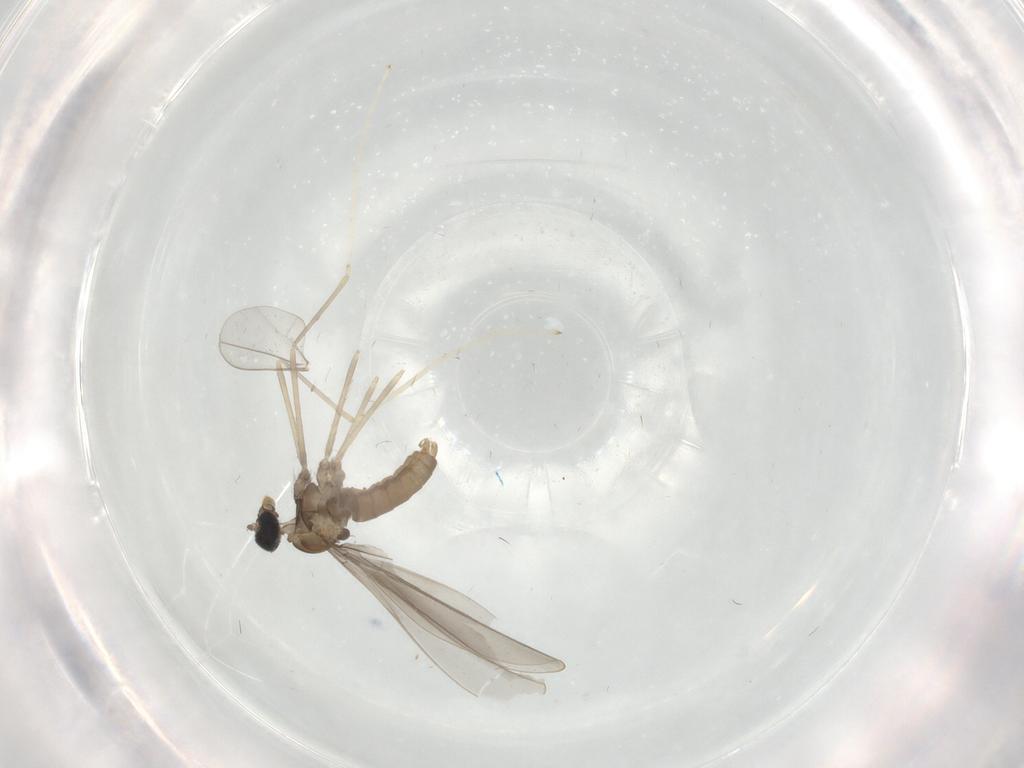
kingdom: Animalia
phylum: Arthropoda
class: Insecta
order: Diptera
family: Cecidomyiidae
